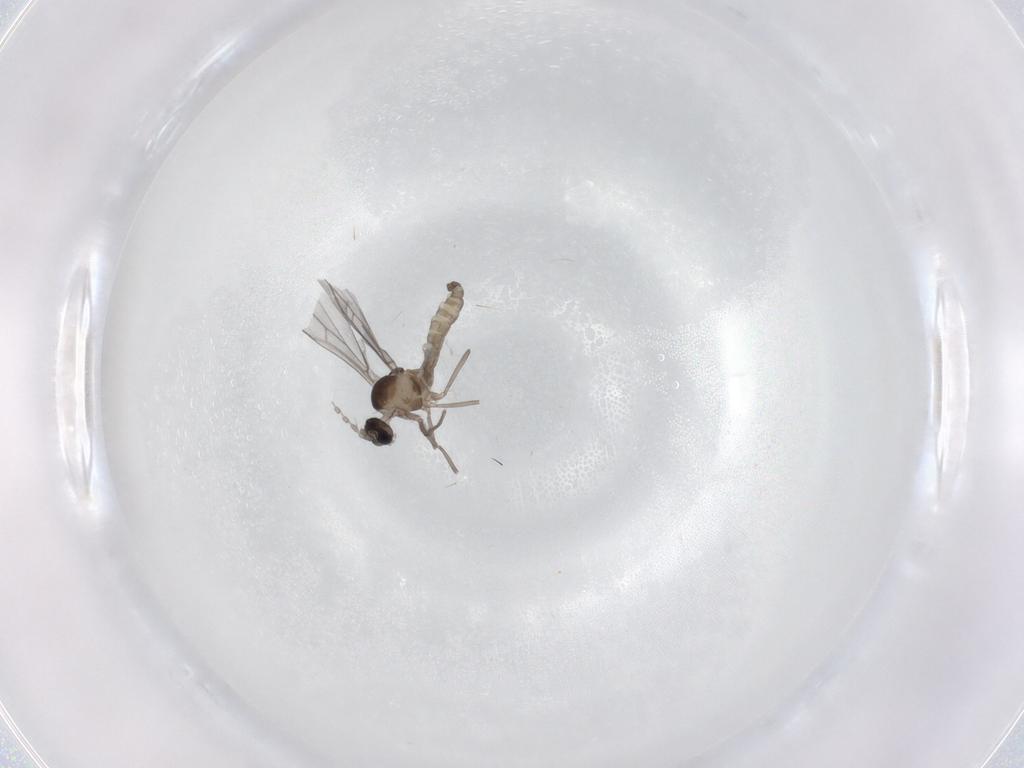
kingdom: Animalia
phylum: Arthropoda
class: Insecta
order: Diptera
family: Cecidomyiidae
